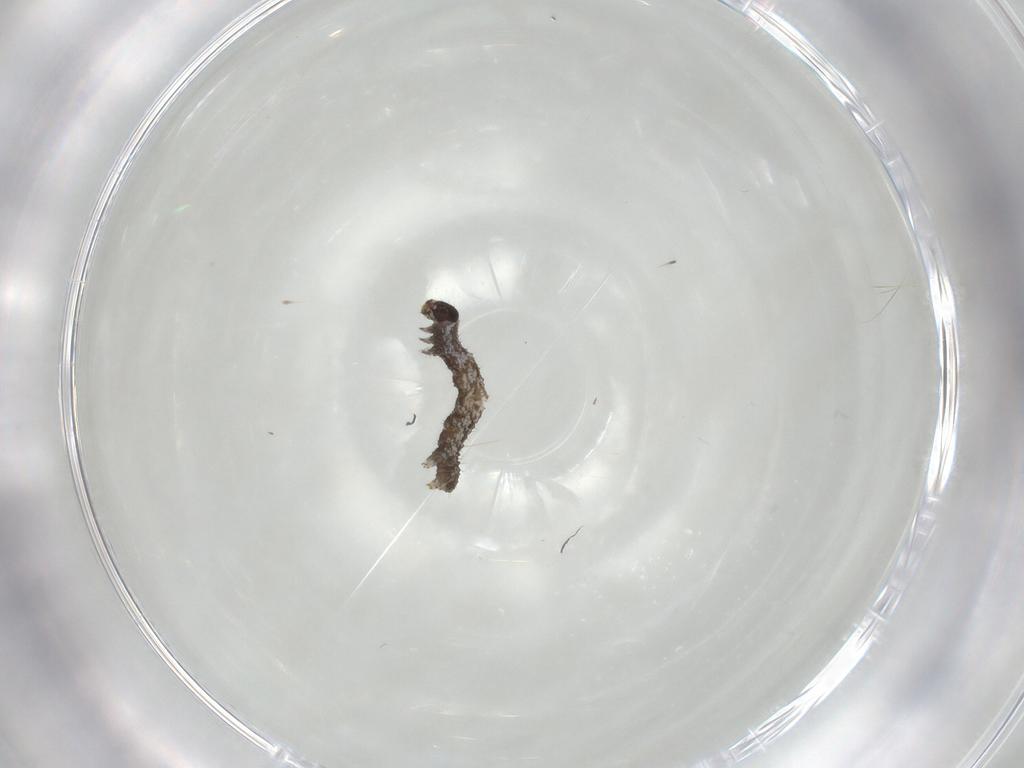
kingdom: Animalia
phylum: Arthropoda
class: Insecta
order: Lepidoptera
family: Geometridae
